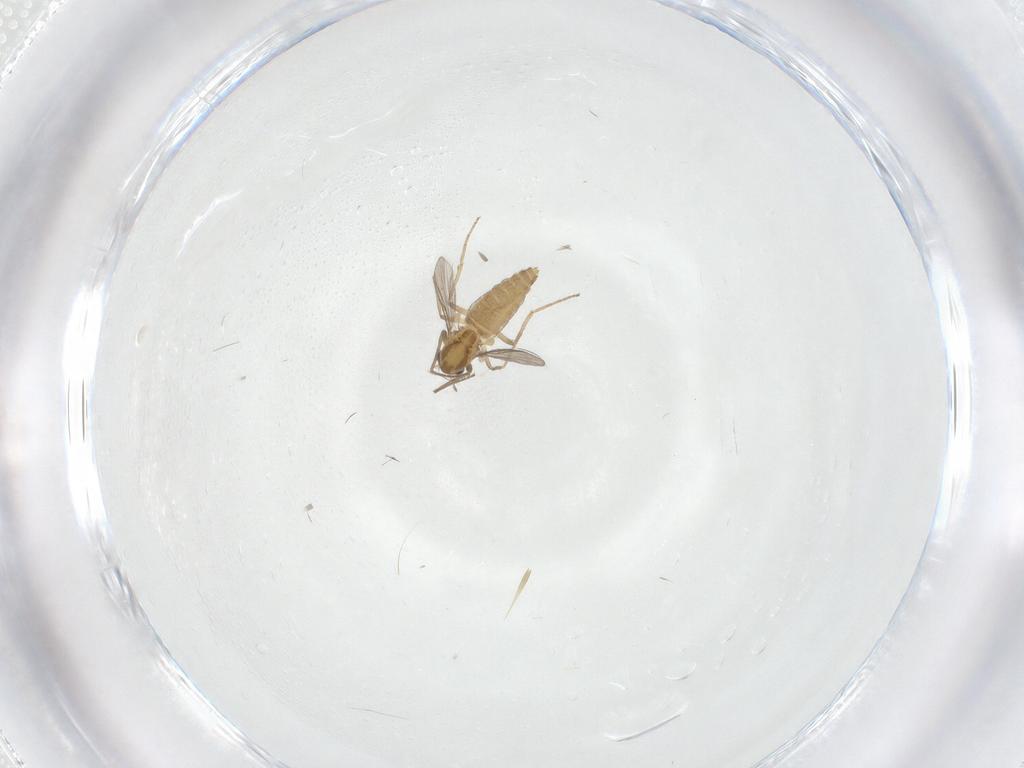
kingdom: Animalia
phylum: Arthropoda
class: Insecta
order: Diptera
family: Chironomidae
